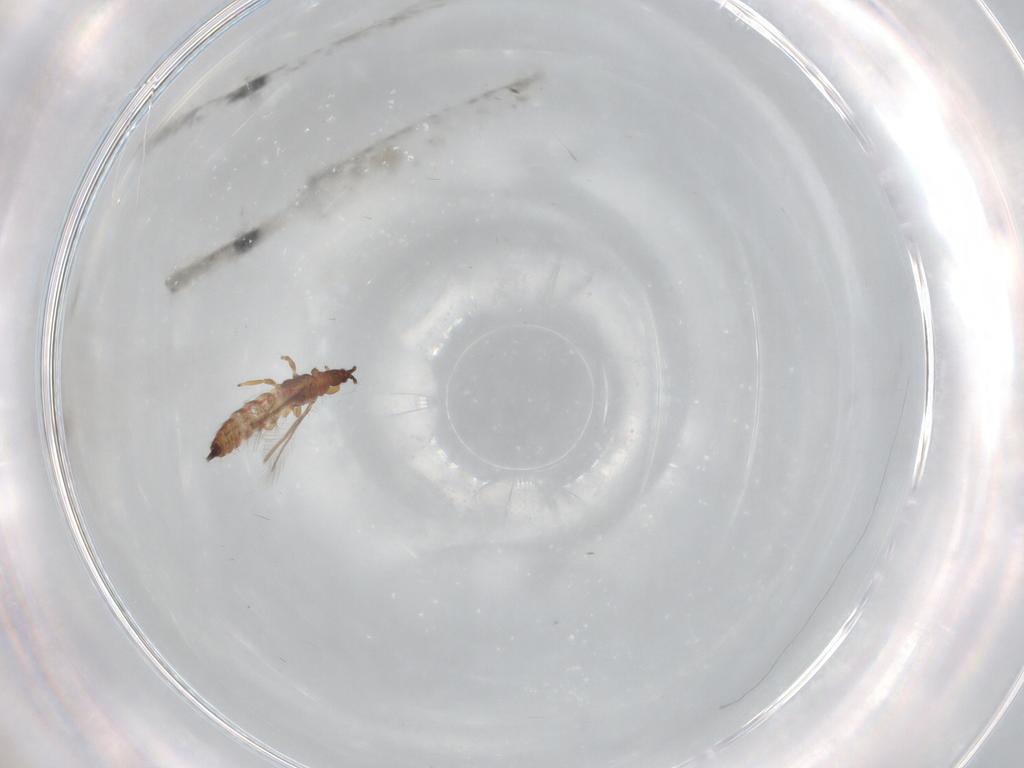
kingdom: Animalia
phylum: Arthropoda
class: Insecta
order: Thysanoptera
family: Phlaeothripidae
